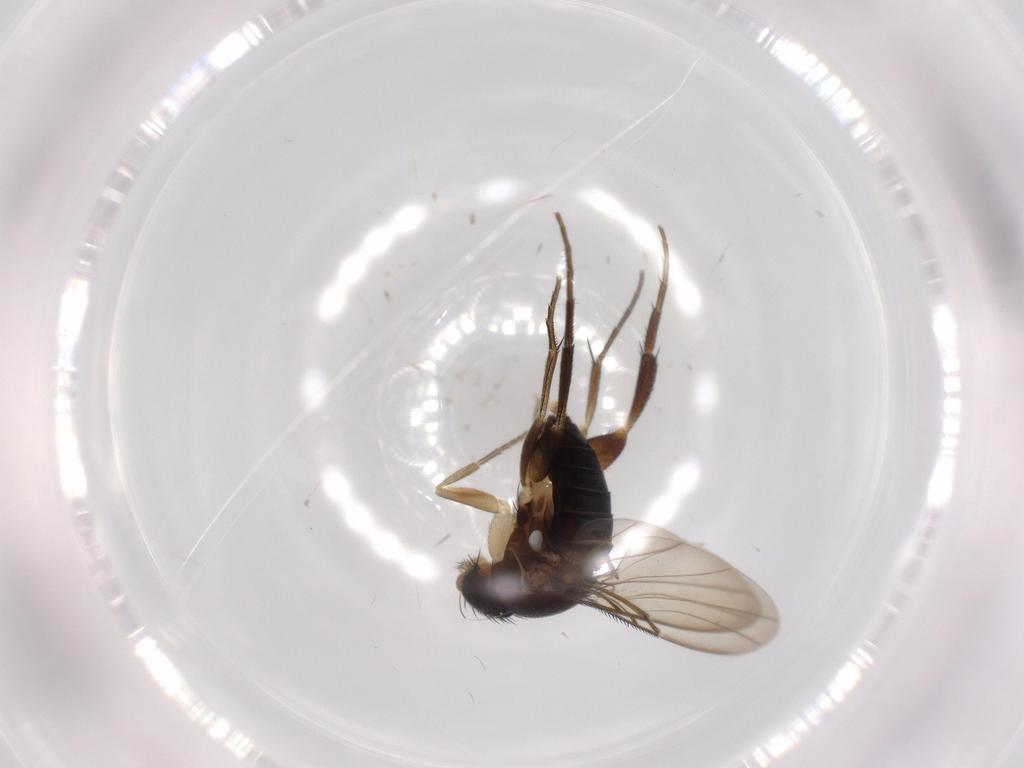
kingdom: Animalia
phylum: Arthropoda
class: Insecta
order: Diptera
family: Phoridae
